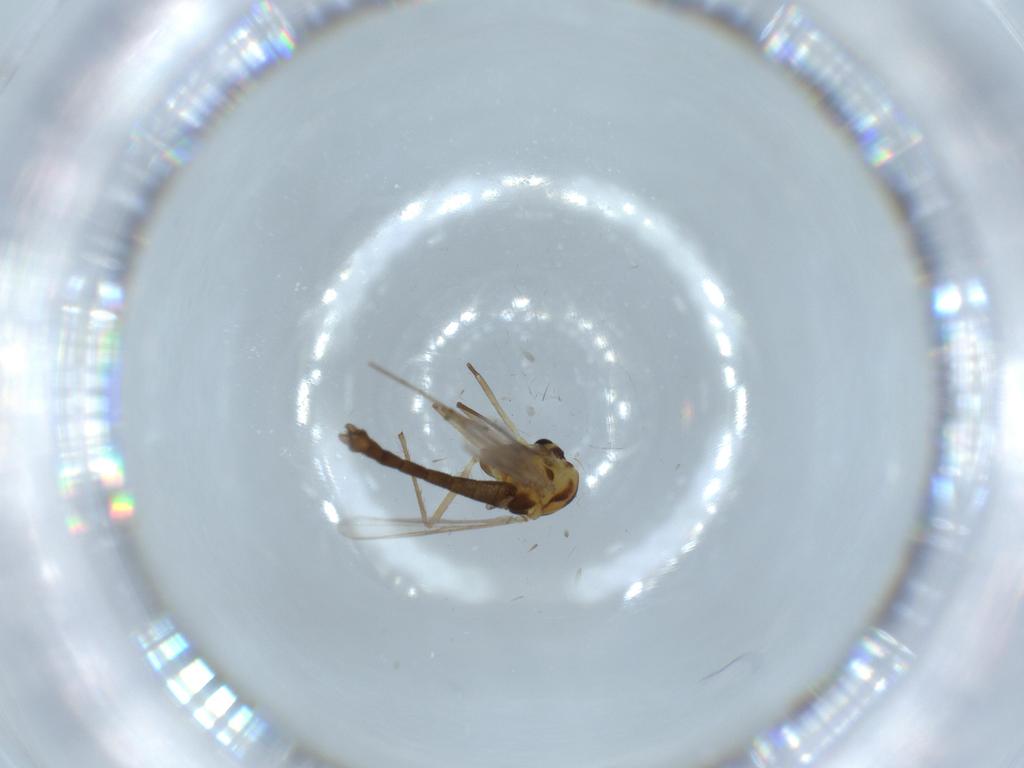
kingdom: Animalia
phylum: Arthropoda
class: Insecta
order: Diptera
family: Chironomidae
